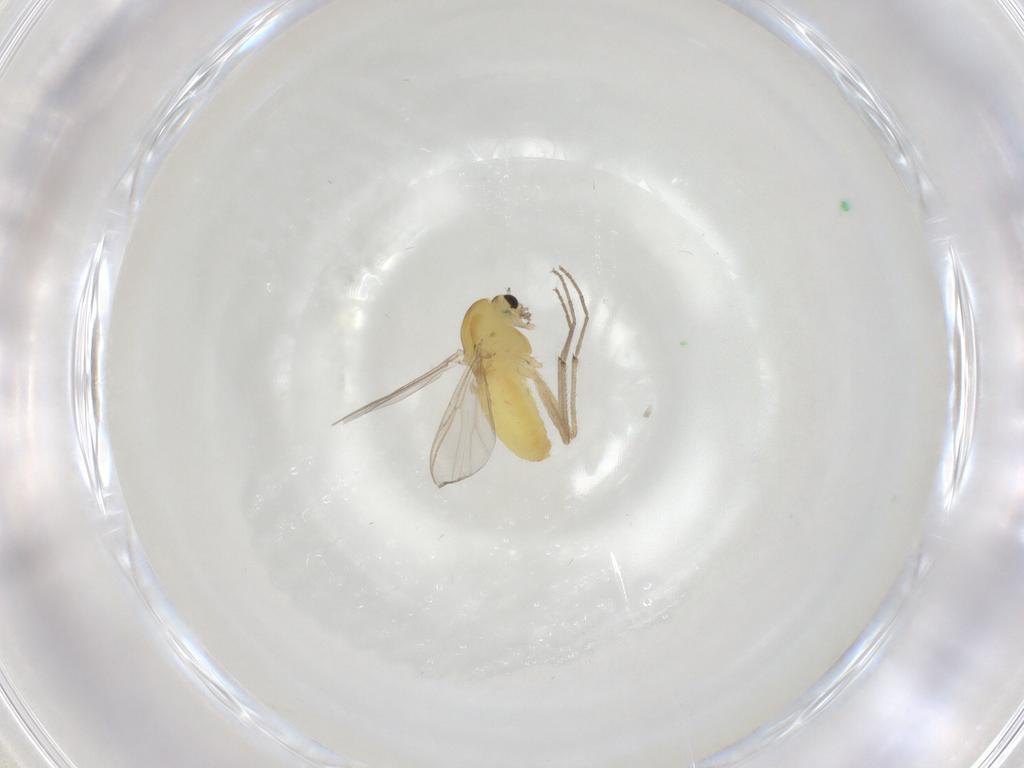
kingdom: Animalia
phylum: Arthropoda
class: Insecta
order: Diptera
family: Chironomidae
